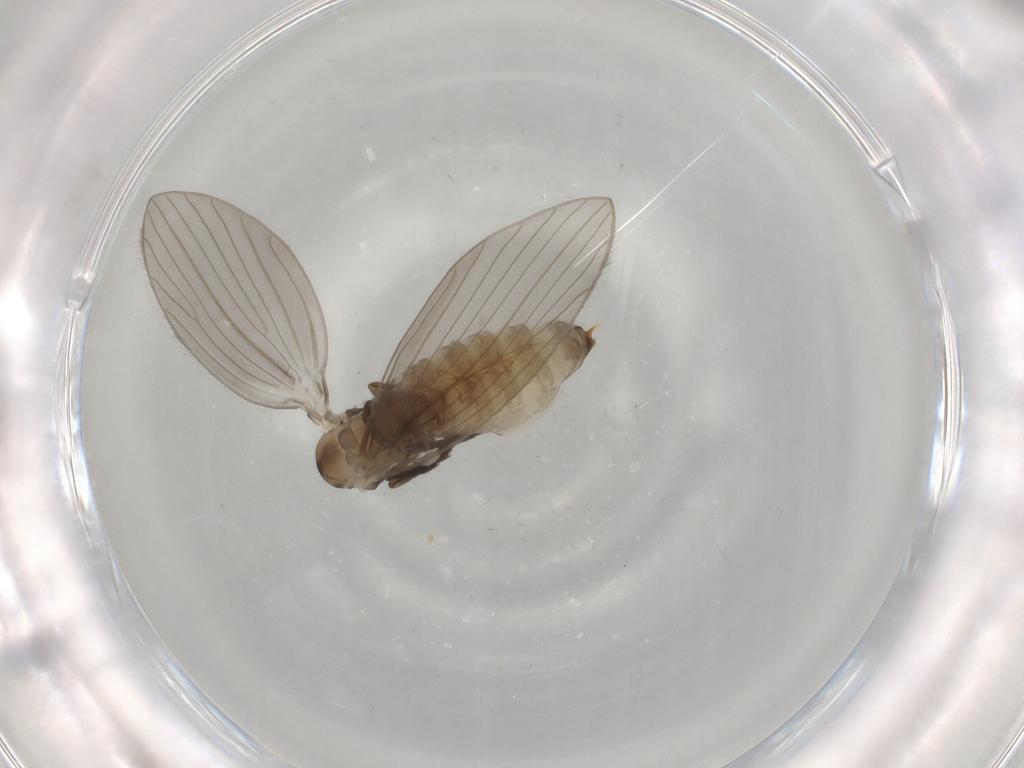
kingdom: Animalia
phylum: Arthropoda
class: Insecta
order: Diptera
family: Psychodidae
